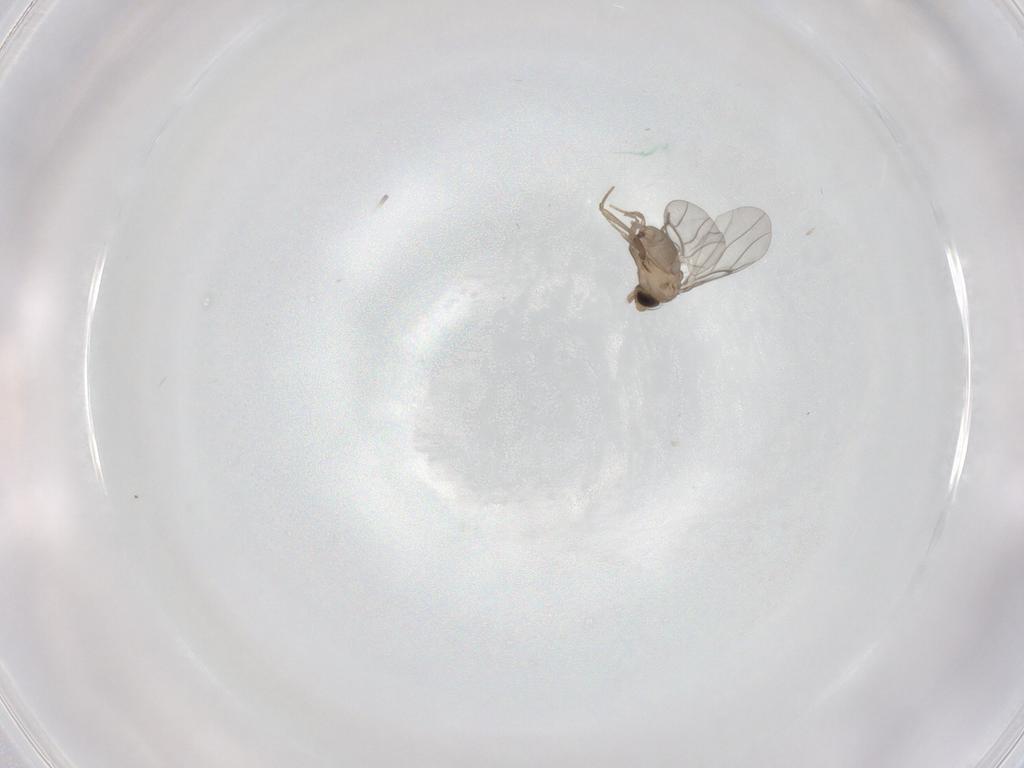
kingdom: Animalia
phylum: Arthropoda
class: Insecta
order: Diptera
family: Cecidomyiidae
